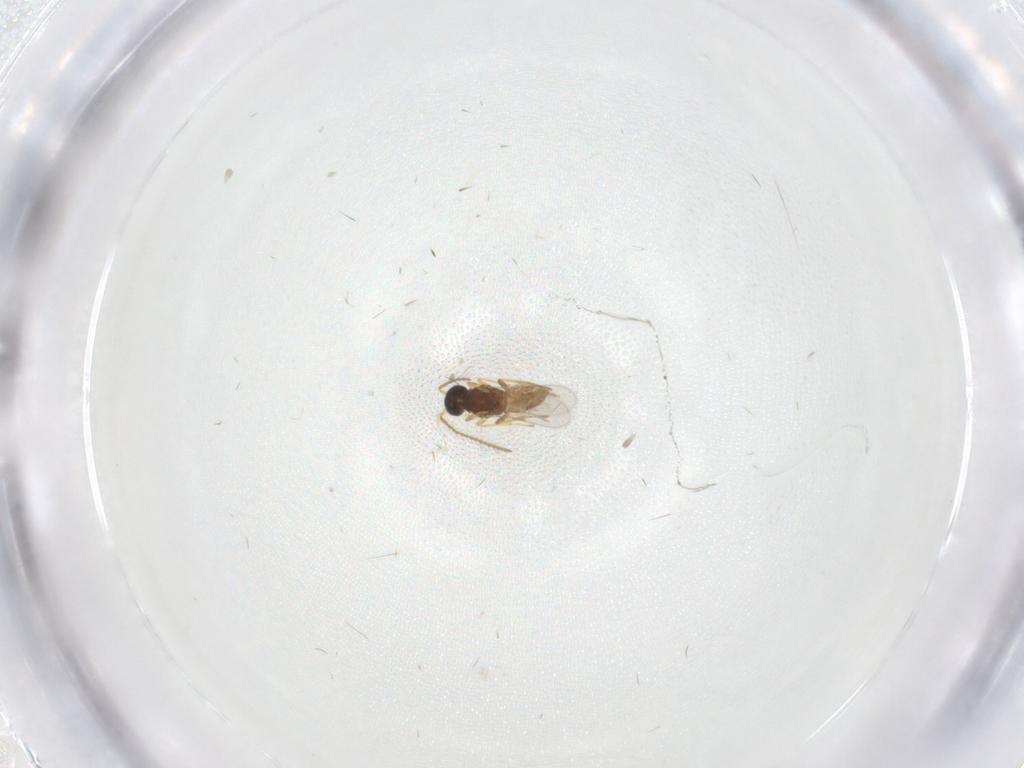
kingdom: Animalia
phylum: Arthropoda
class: Insecta
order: Hymenoptera
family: Encyrtidae
